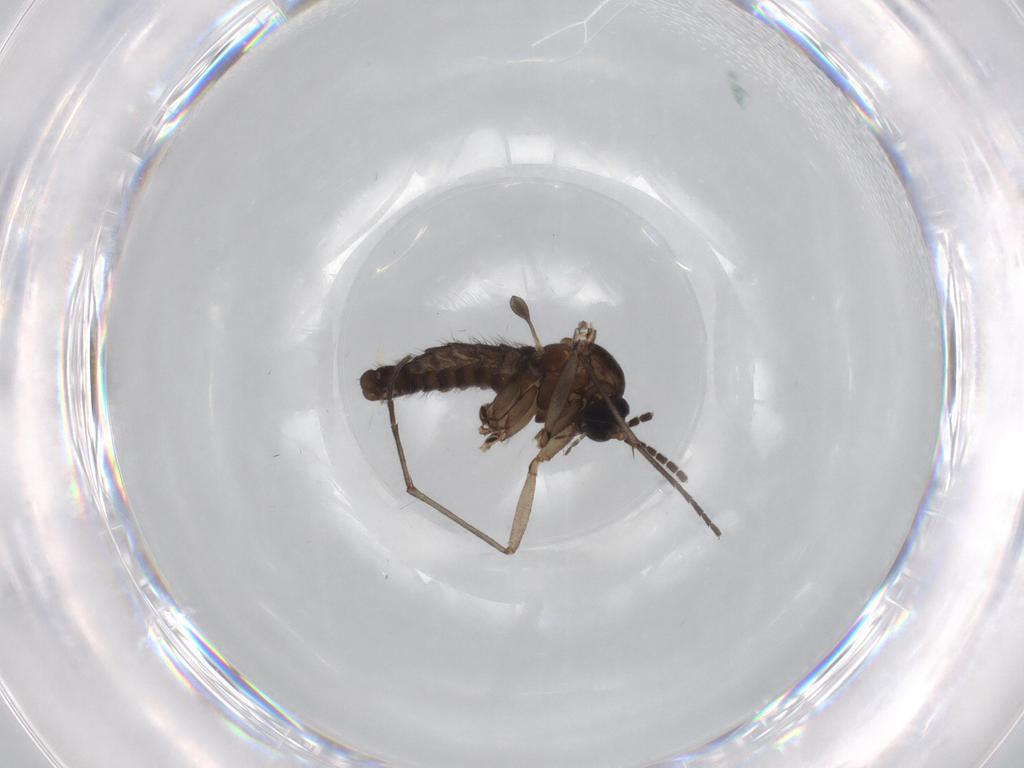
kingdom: Animalia
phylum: Arthropoda
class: Insecta
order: Diptera
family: Sciaridae
